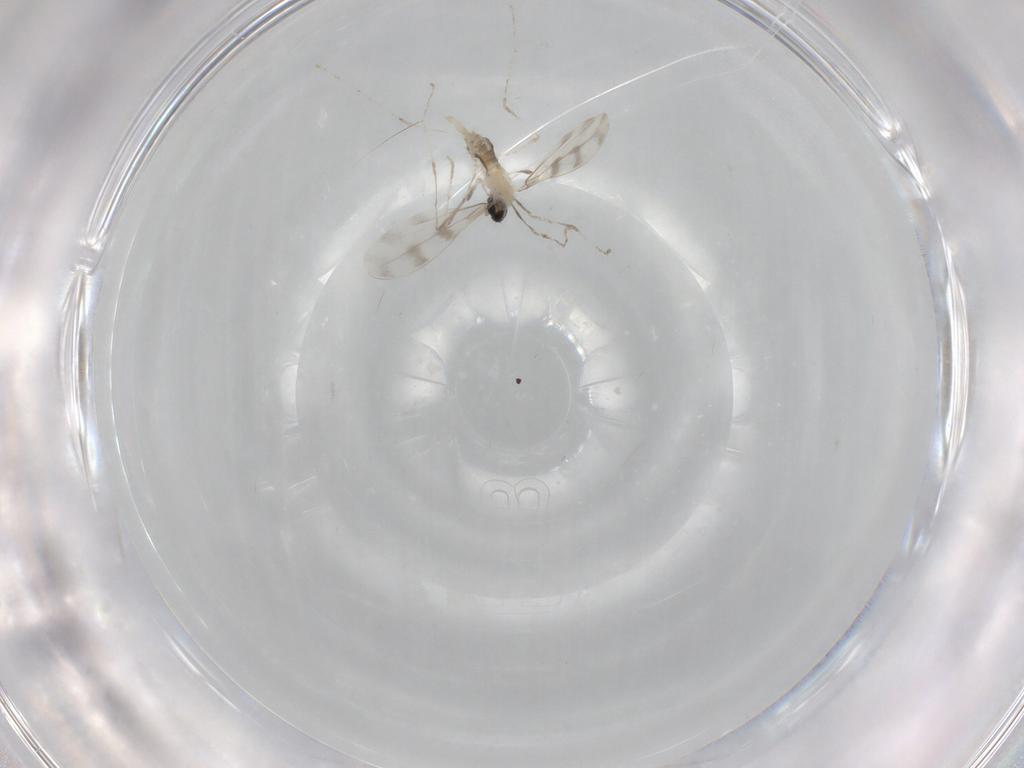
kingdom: Animalia
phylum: Arthropoda
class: Insecta
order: Diptera
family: Cecidomyiidae
